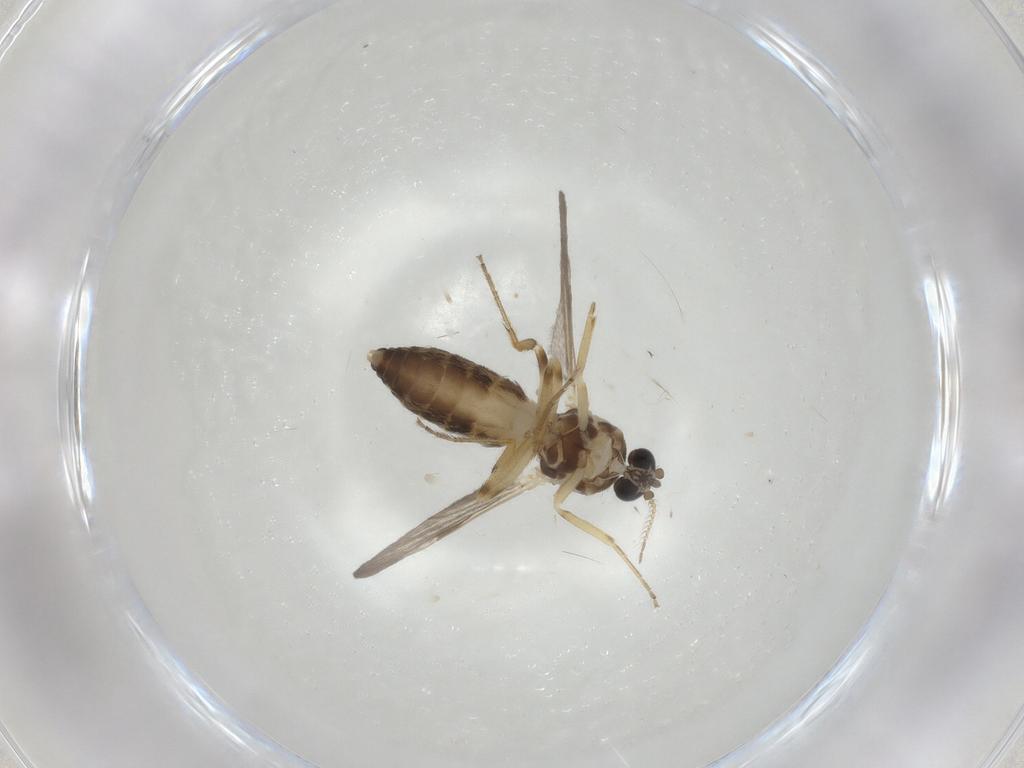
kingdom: Animalia
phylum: Arthropoda
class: Insecta
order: Diptera
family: Ceratopogonidae
